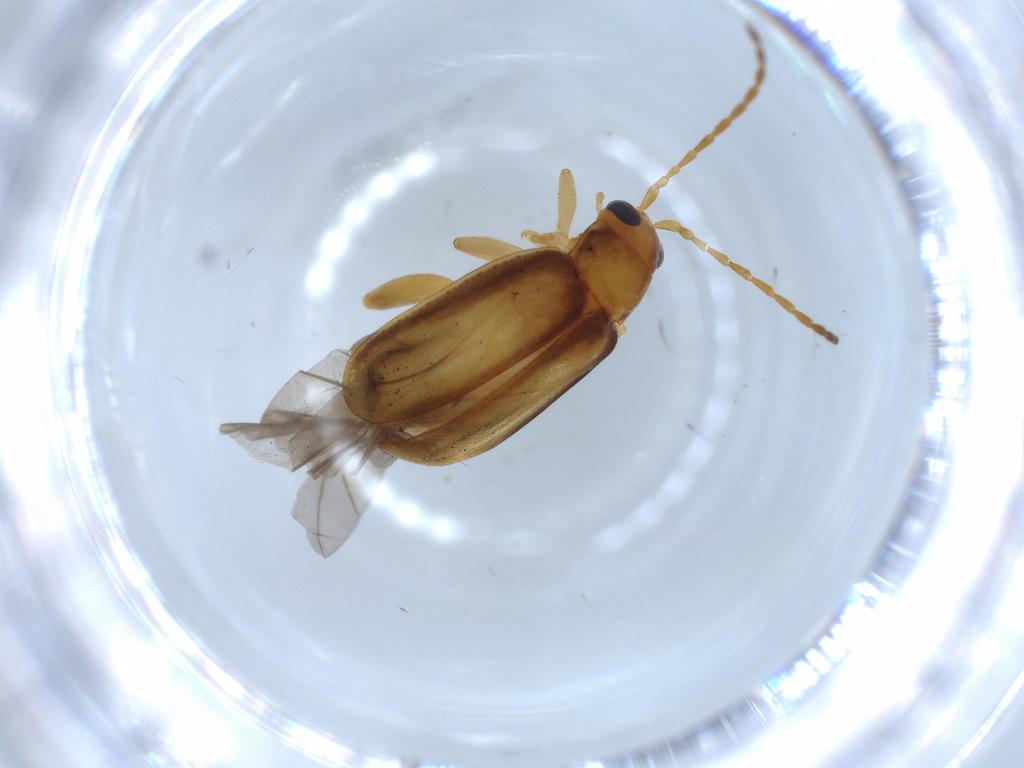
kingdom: Animalia
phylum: Arthropoda
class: Insecta
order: Coleoptera
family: Chrysomelidae
